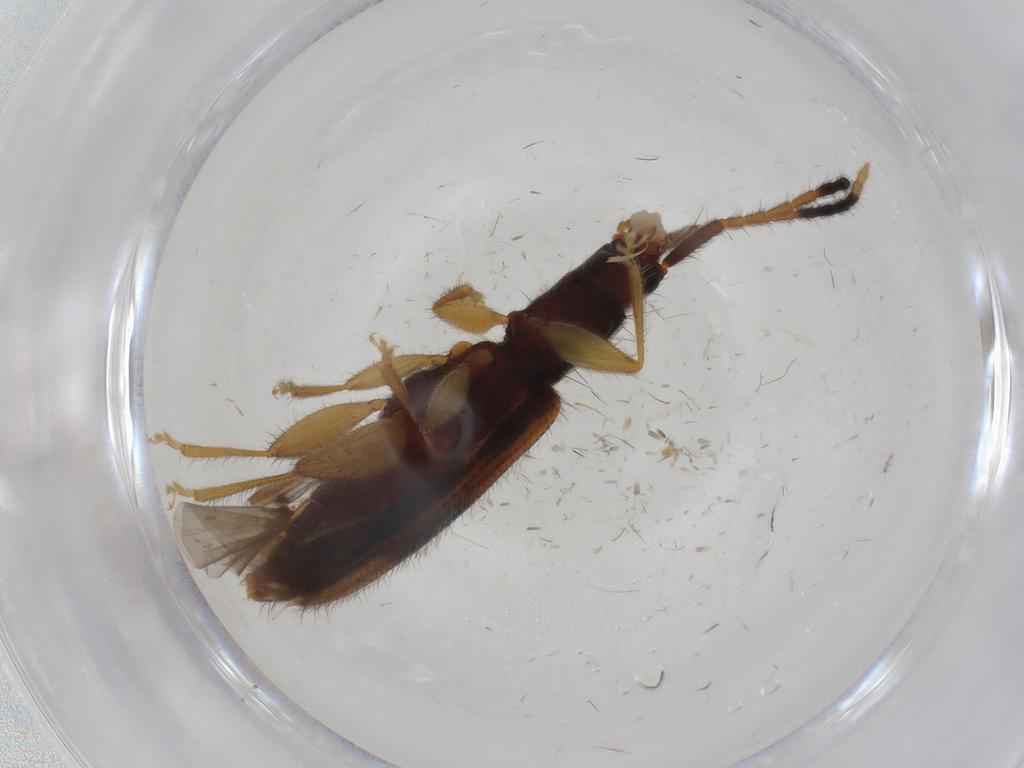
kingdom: Animalia
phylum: Arthropoda
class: Insecta
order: Coleoptera
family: Silvanidae
